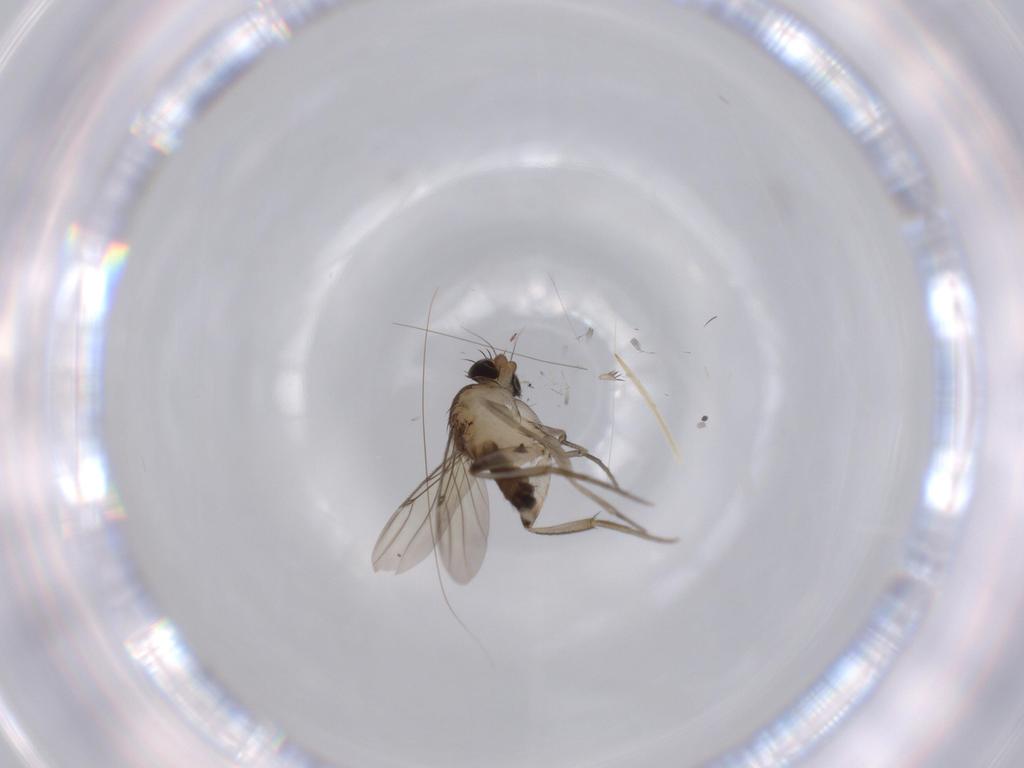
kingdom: Animalia
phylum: Arthropoda
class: Insecta
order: Diptera
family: Phoridae
